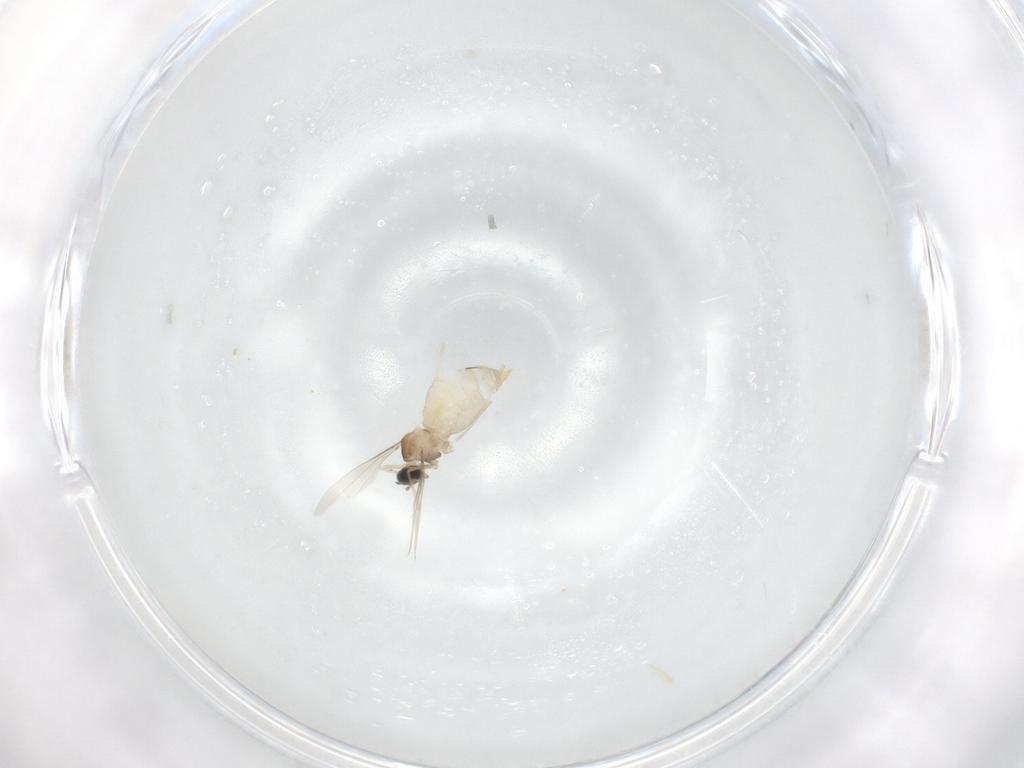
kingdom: Animalia
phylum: Arthropoda
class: Insecta
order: Diptera
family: Cecidomyiidae
